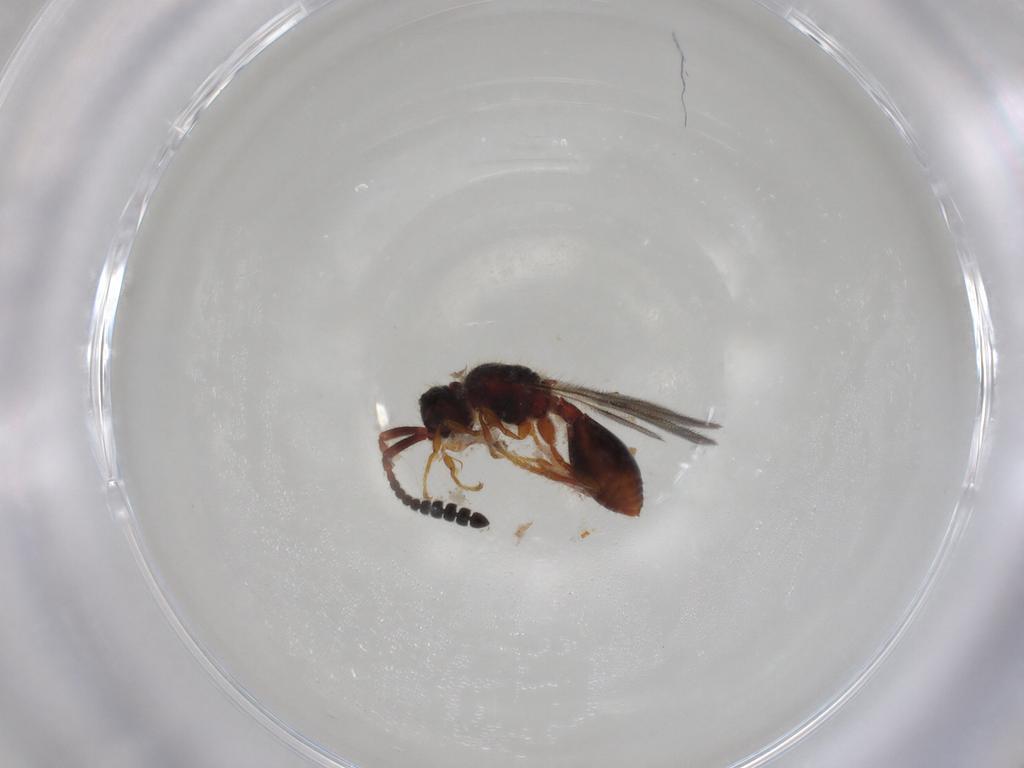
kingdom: Animalia
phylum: Arthropoda
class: Insecta
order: Hymenoptera
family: Diapriidae
